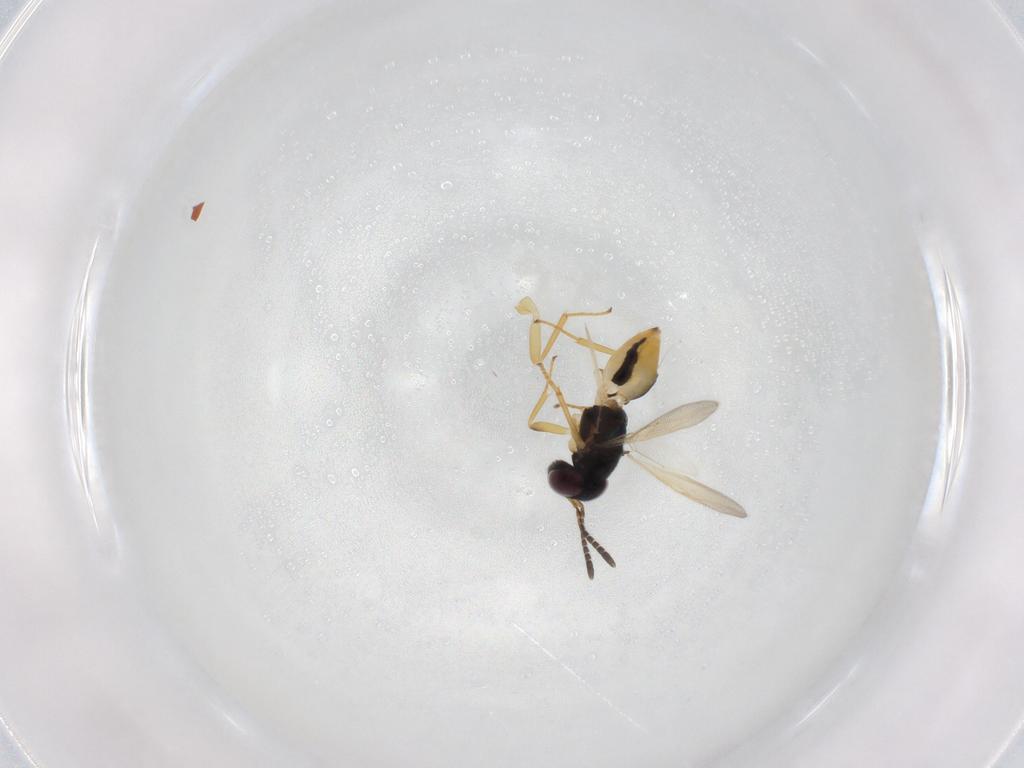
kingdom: Animalia
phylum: Arthropoda
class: Insecta
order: Hymenoptera
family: Encyrtidae
